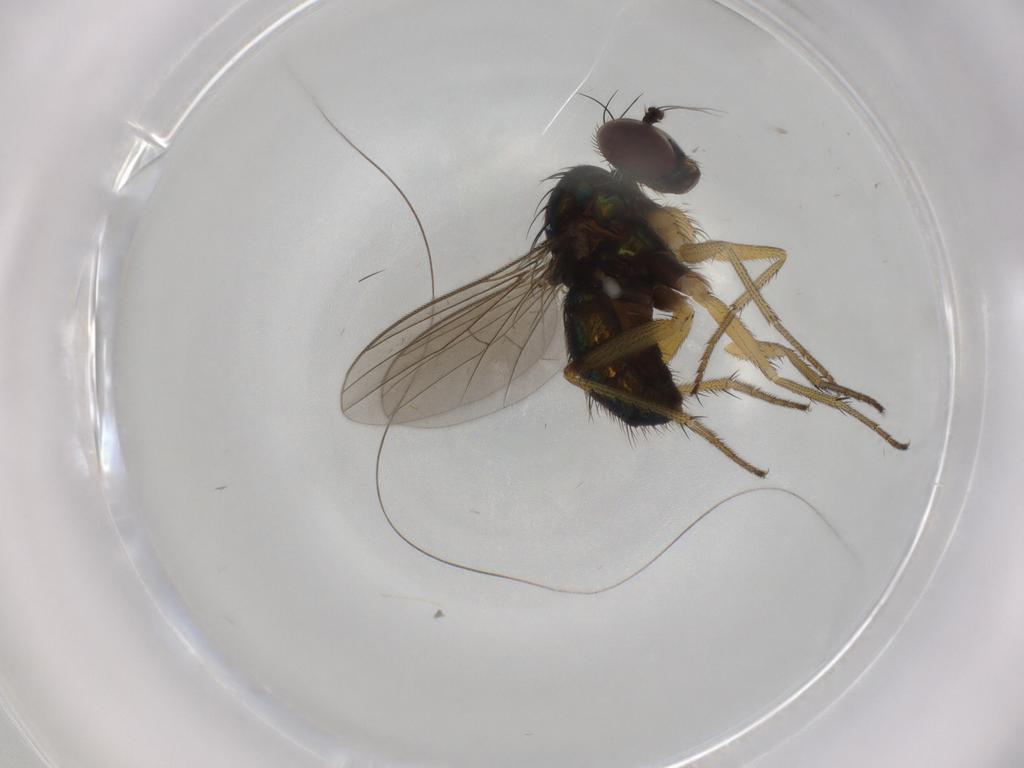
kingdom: Animalia
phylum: Arthropoda
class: Insecta
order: Diptera
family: Dolichopodidae
